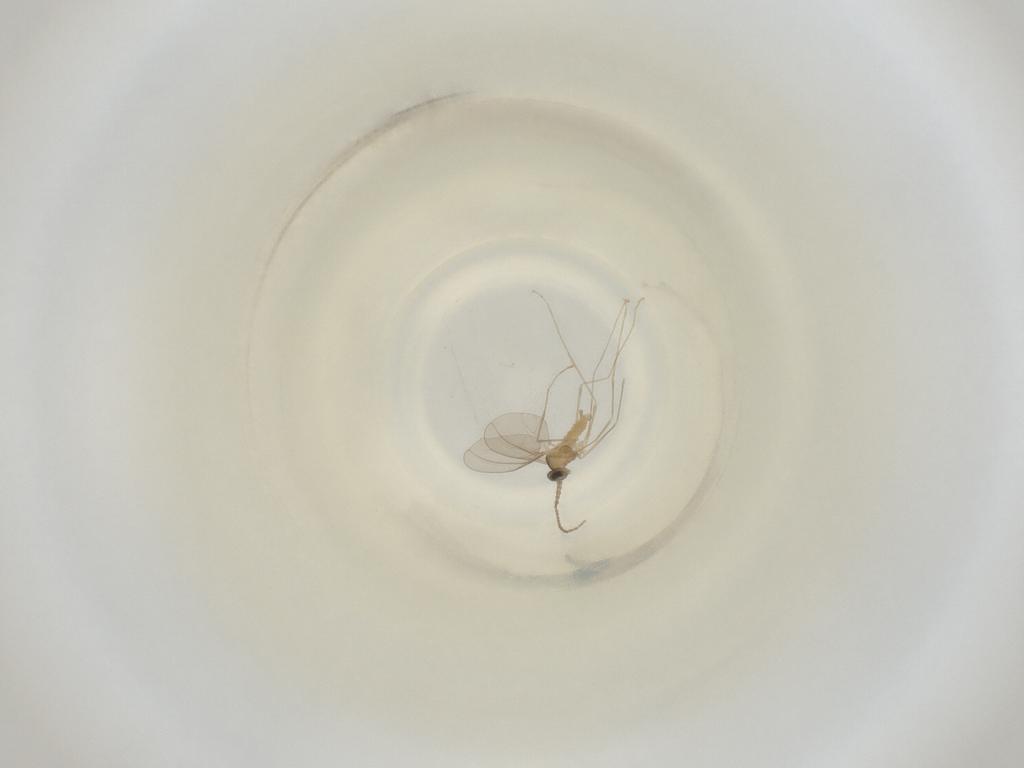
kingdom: Animalia
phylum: Arthropoda
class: Insecta
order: Diptera
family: Cecidomyiidae
